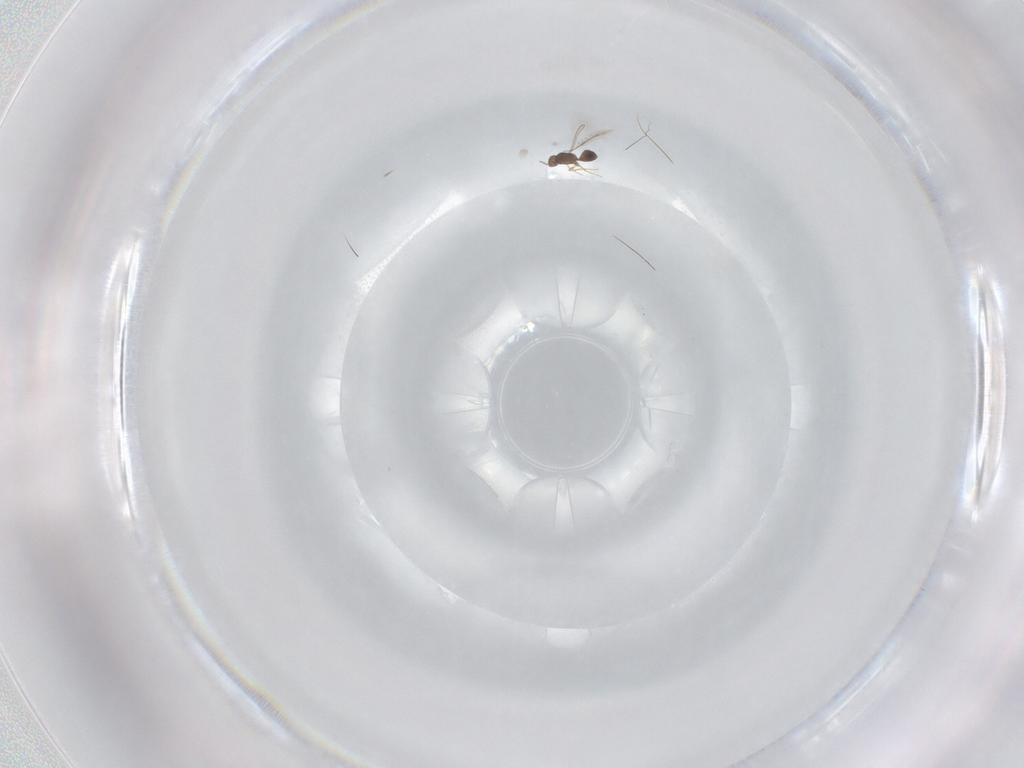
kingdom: Animalia
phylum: Arthropoda
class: Insecta
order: Hymenoptera
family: Mymaridae
